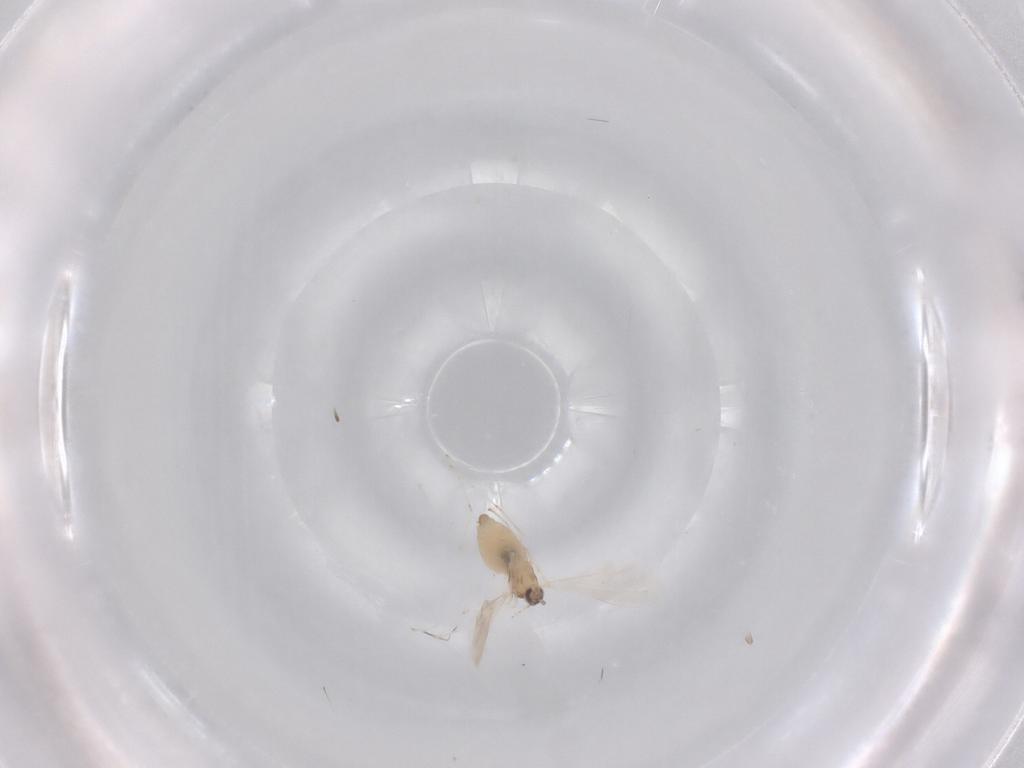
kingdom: Animalia
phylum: Arthropoda
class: Insecta
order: Diptera
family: Cecidomyiidae
